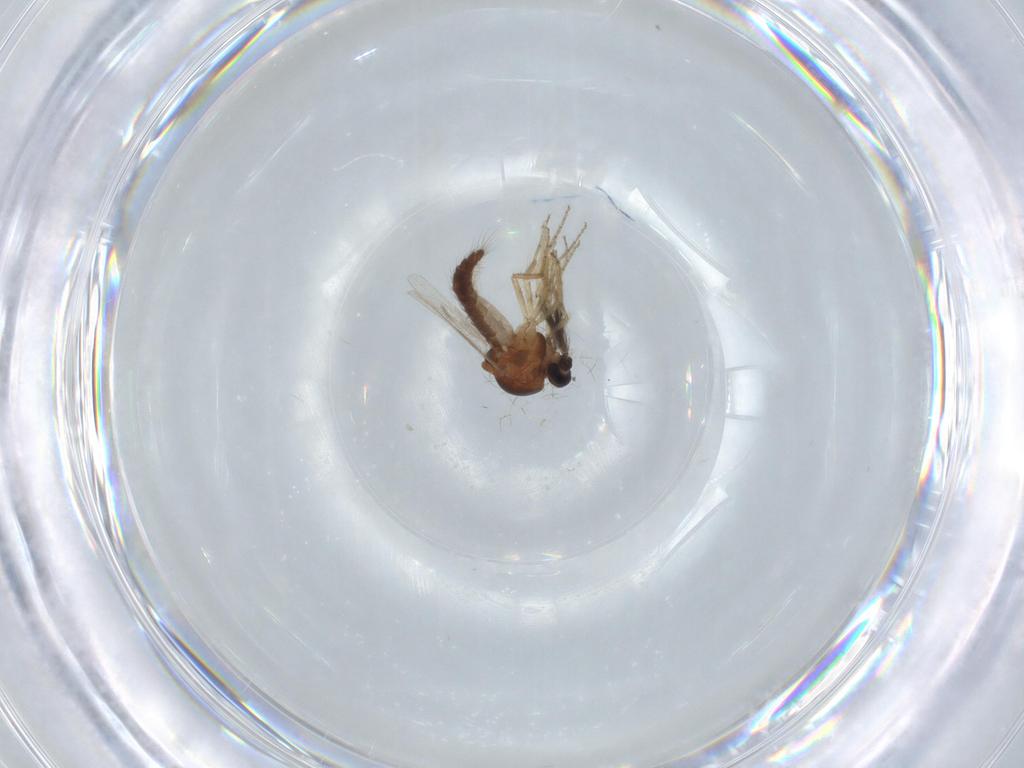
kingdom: Animalia
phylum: Arthropoda
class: Insecta
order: Diptera
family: Ceratopogonidae
